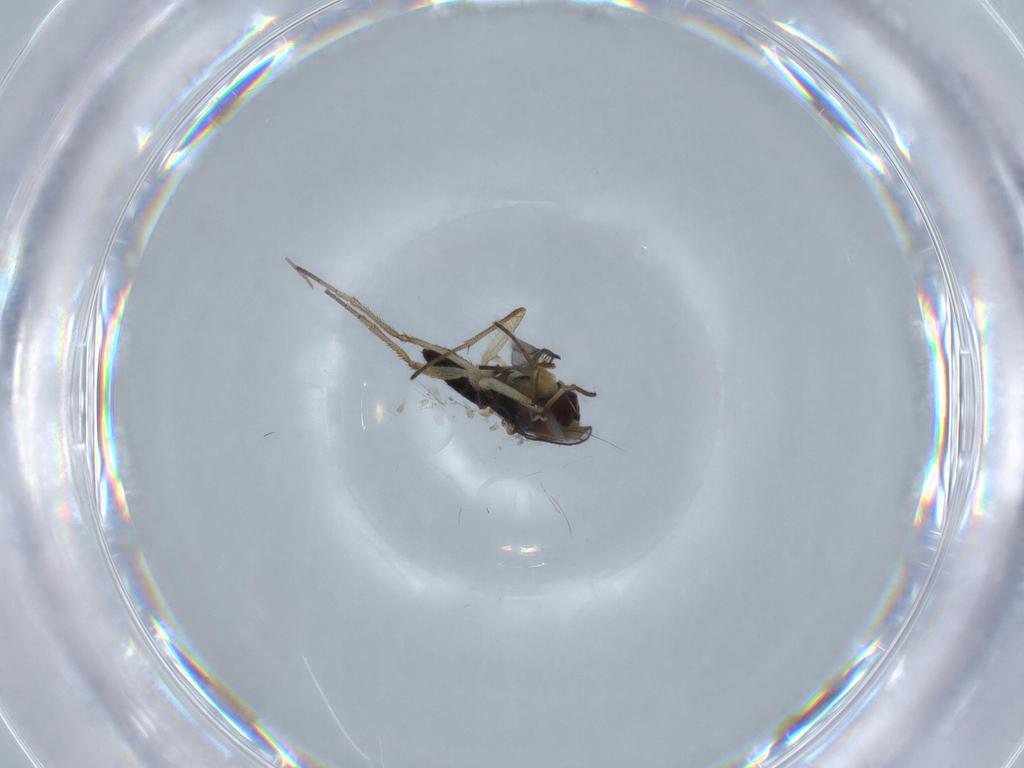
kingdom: Animalia
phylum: Arthropoda
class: Insecta
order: Diptera
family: Dolichopodidae
